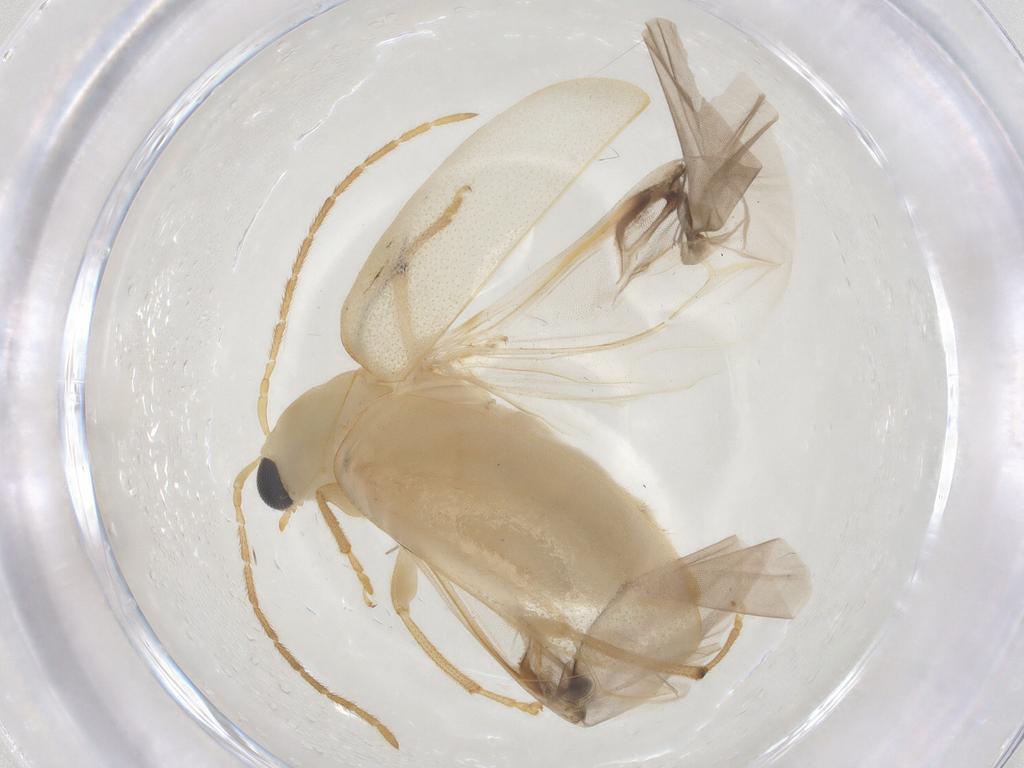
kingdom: Animalia
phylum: Arthropoda
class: Insecta
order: Coleoptera
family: Chrysomelidae
